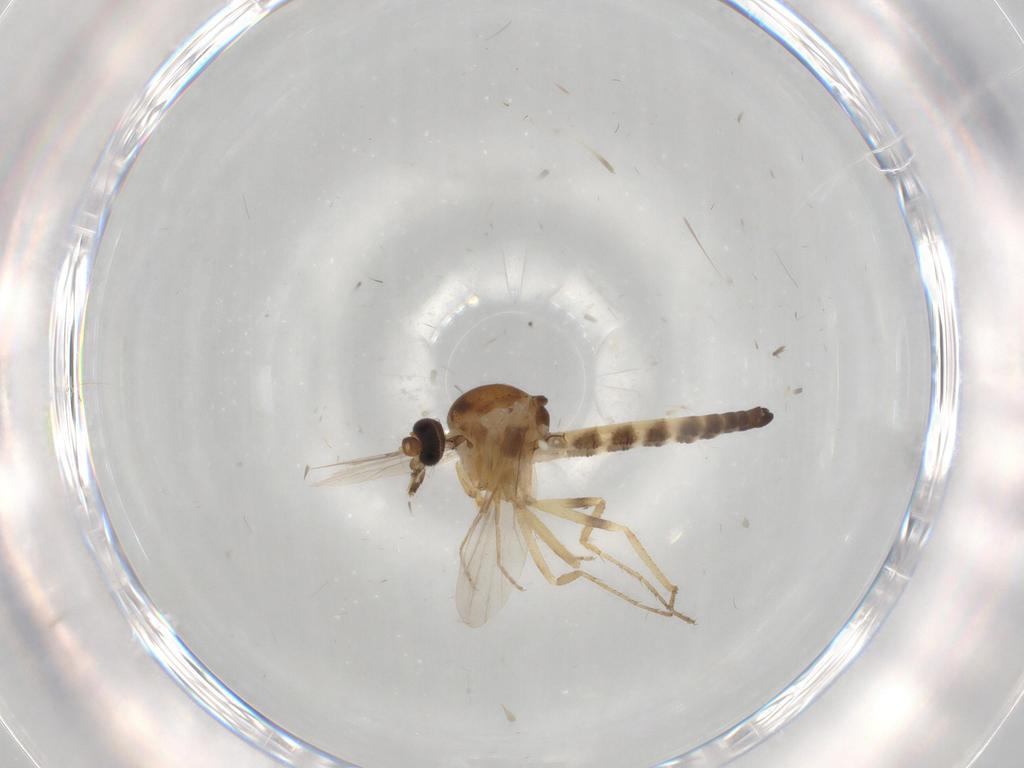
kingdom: Animalia
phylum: Arthropoda
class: Insecta
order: Diptera
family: Ceratopogonidae
